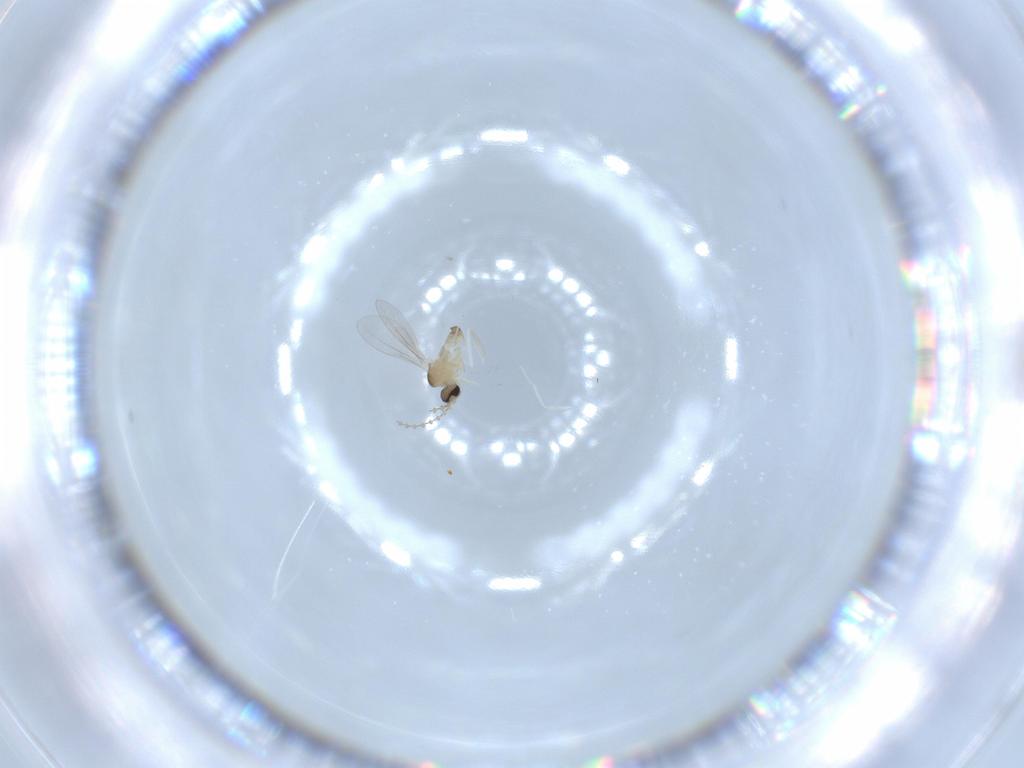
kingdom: Animalia
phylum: Arthropoda
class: Insecta
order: Diptera
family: Cecidomyiidae
